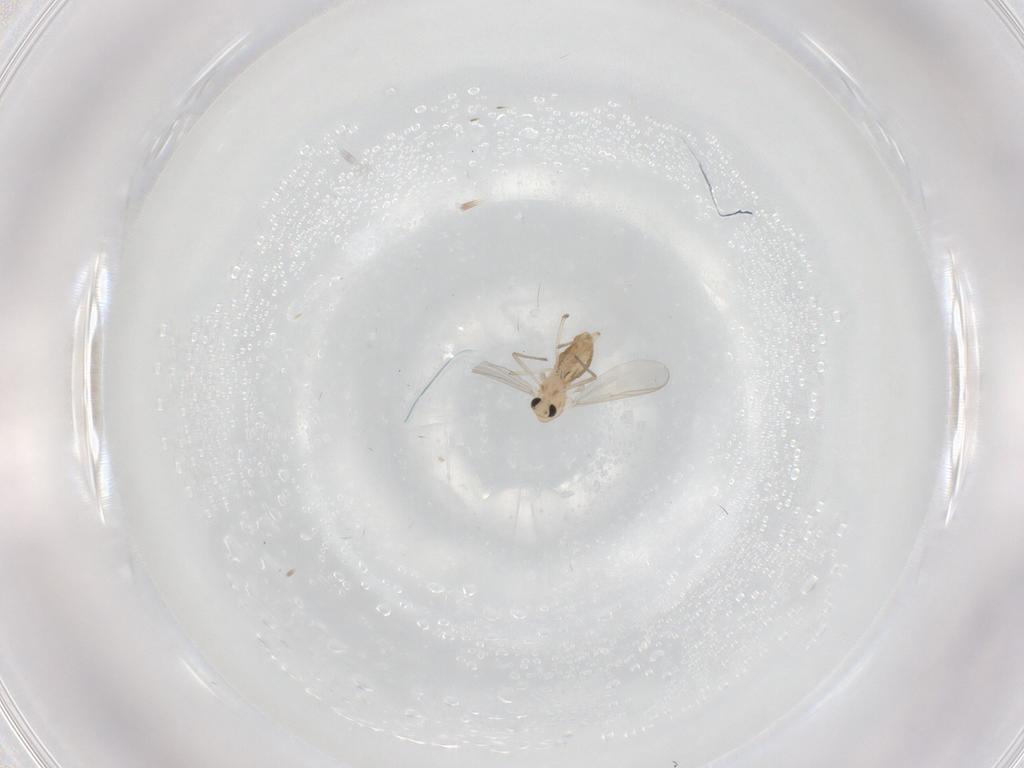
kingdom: Animalia
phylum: Arthropoda
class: Insecta
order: Diptera
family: Chironomidae
